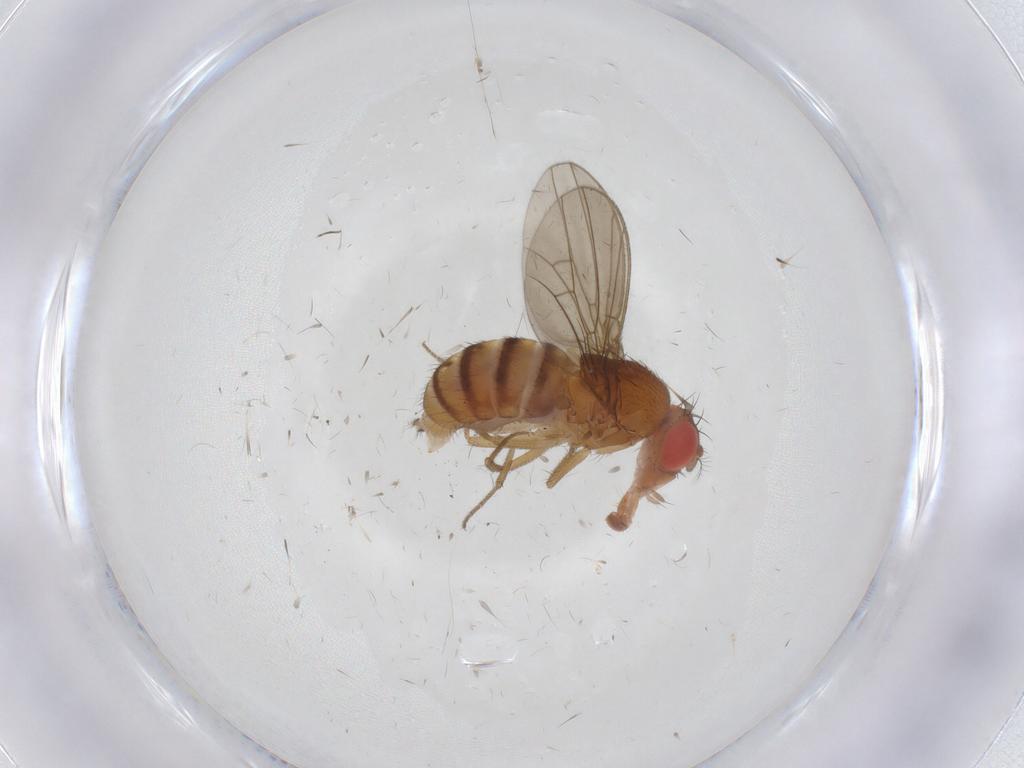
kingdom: Animalia
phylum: Arthropoda
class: Insecta
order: Diptera
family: Drosophilidae
